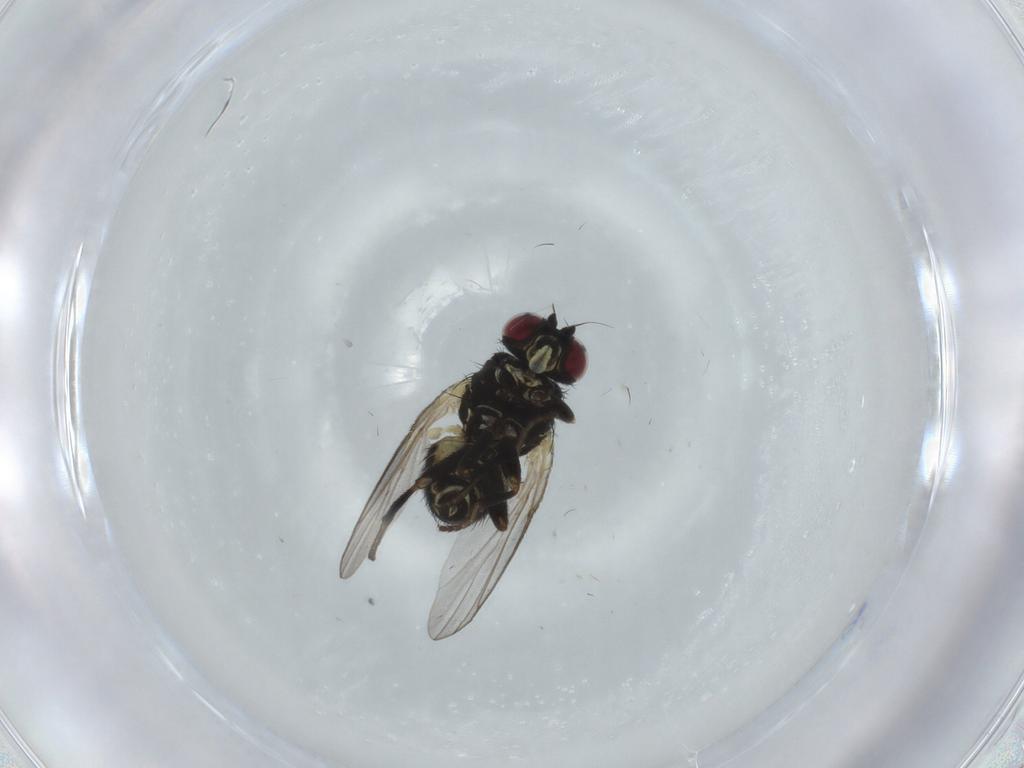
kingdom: Animalia
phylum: Arthropoda
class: Insecta
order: Diptera
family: Agromyzidae
